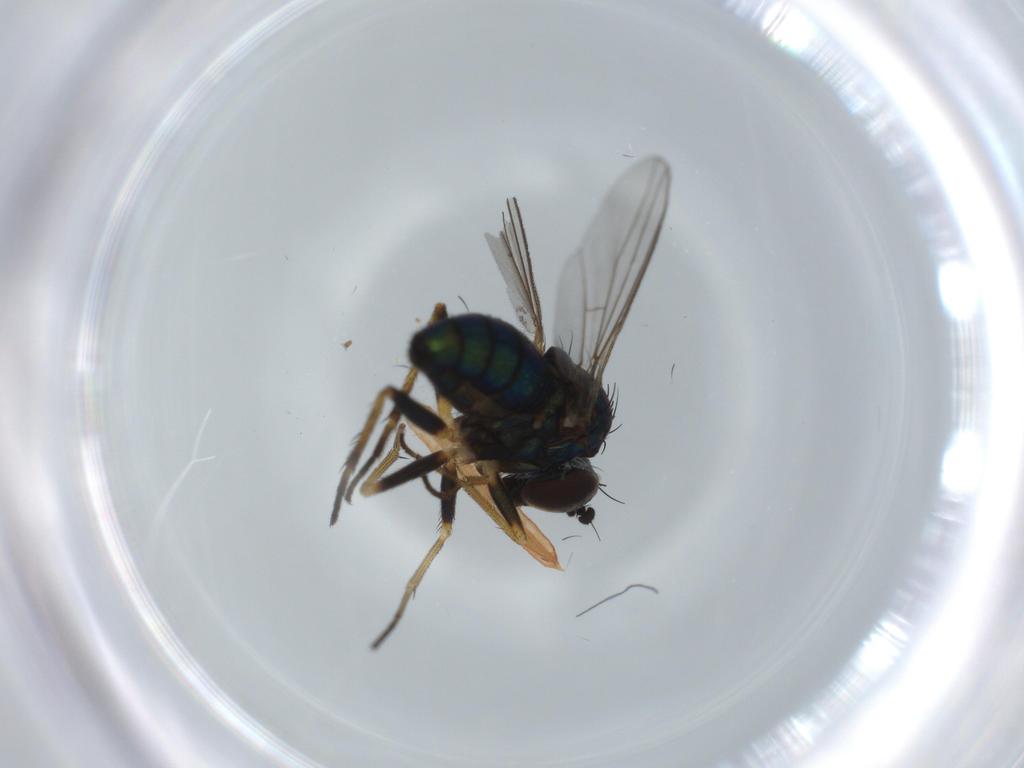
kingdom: Animalia
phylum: Arthropoda
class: Insecta
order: Diptera
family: Dolichopodidae
